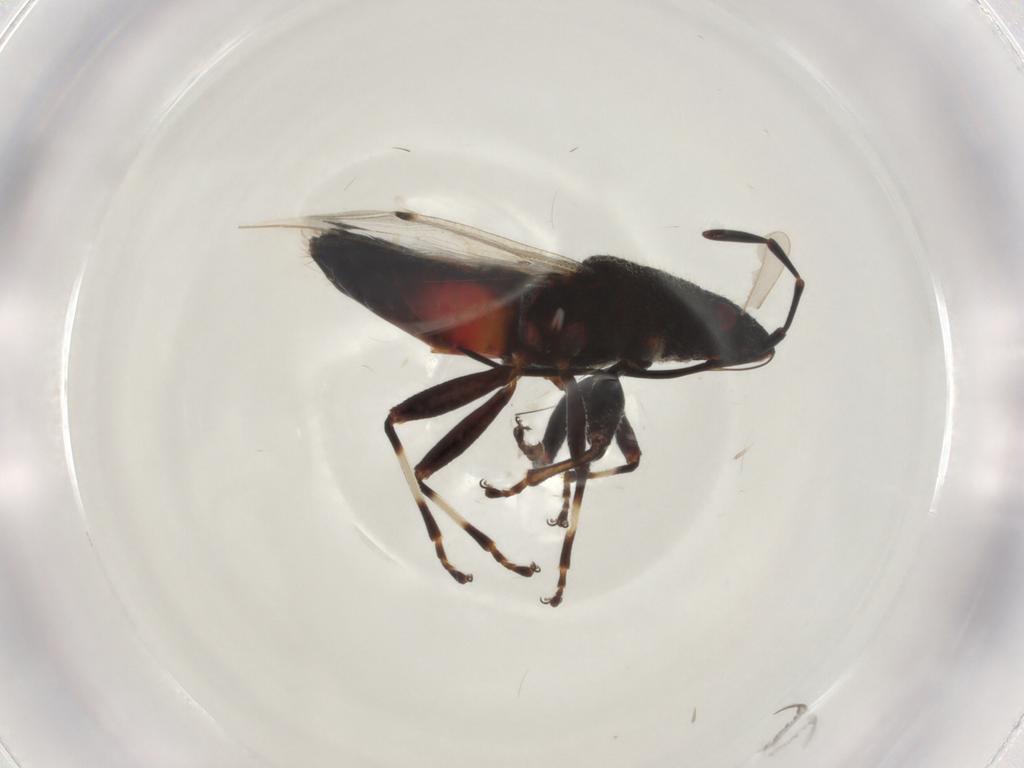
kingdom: Animalia
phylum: Arthropoda
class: Insecta
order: Hemiptera
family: Oxycarenidae
